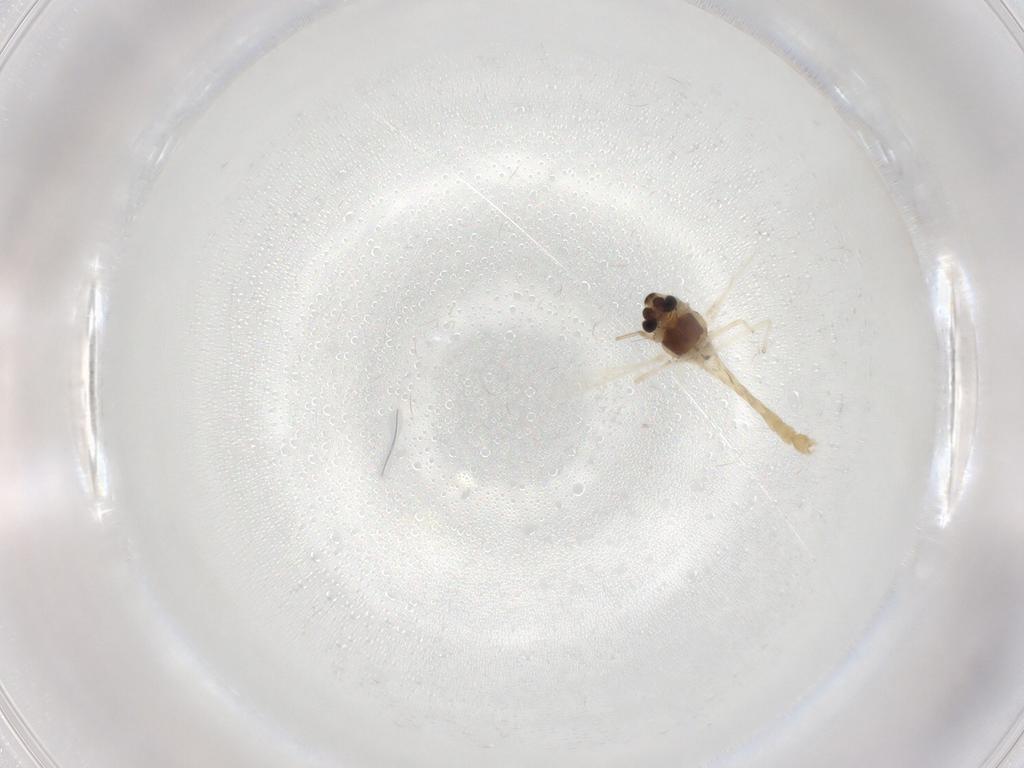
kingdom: Animalia
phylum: Arthropoda
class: Insecta
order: Diptera
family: Chironomidae
